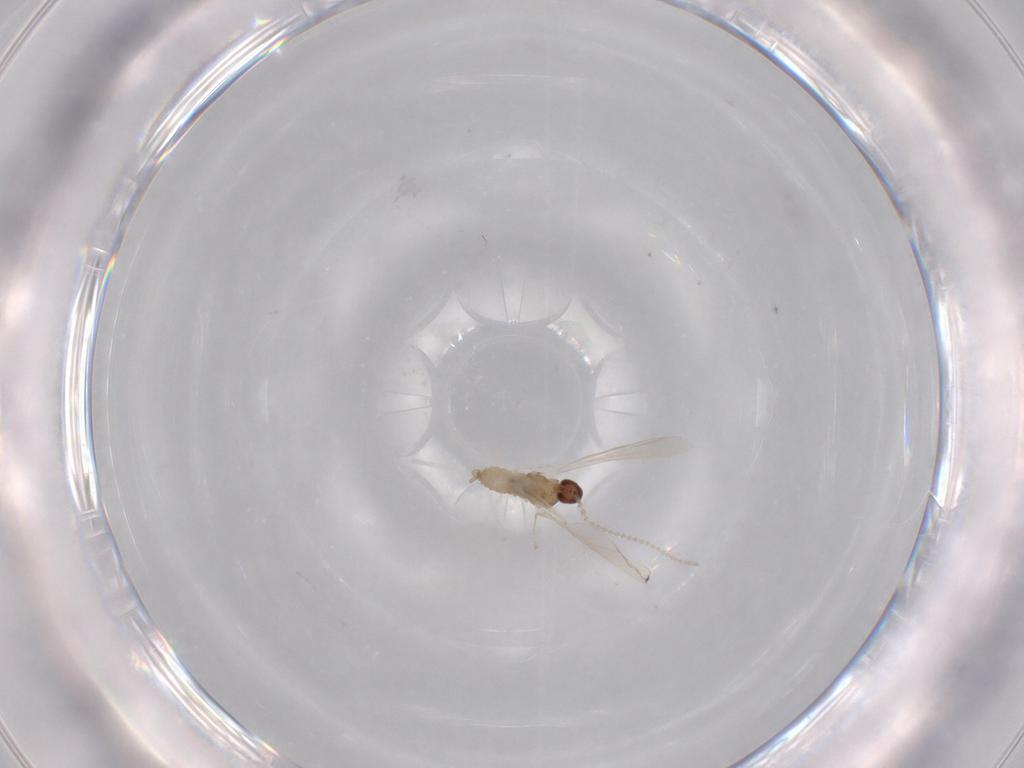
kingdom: Animalia
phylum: Arthropoda
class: Insecta
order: Diptera
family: Cecidomyiidae
